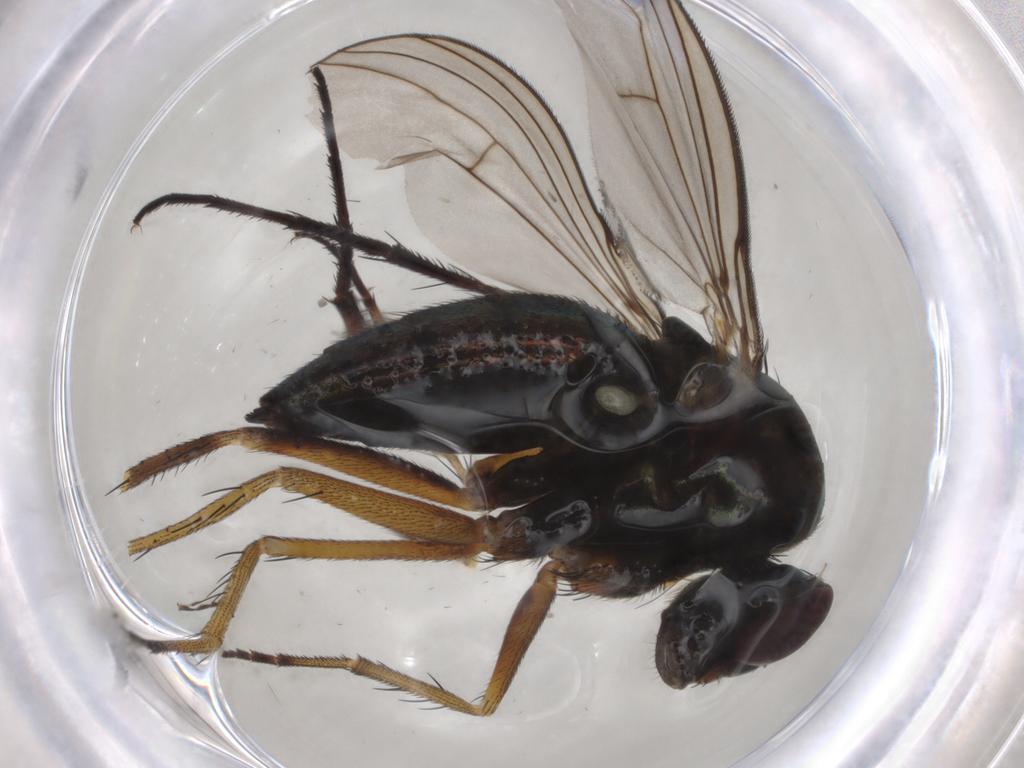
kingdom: Animalia
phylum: Arthropoda
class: Insecta
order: Diptera
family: Dolichopodidae
